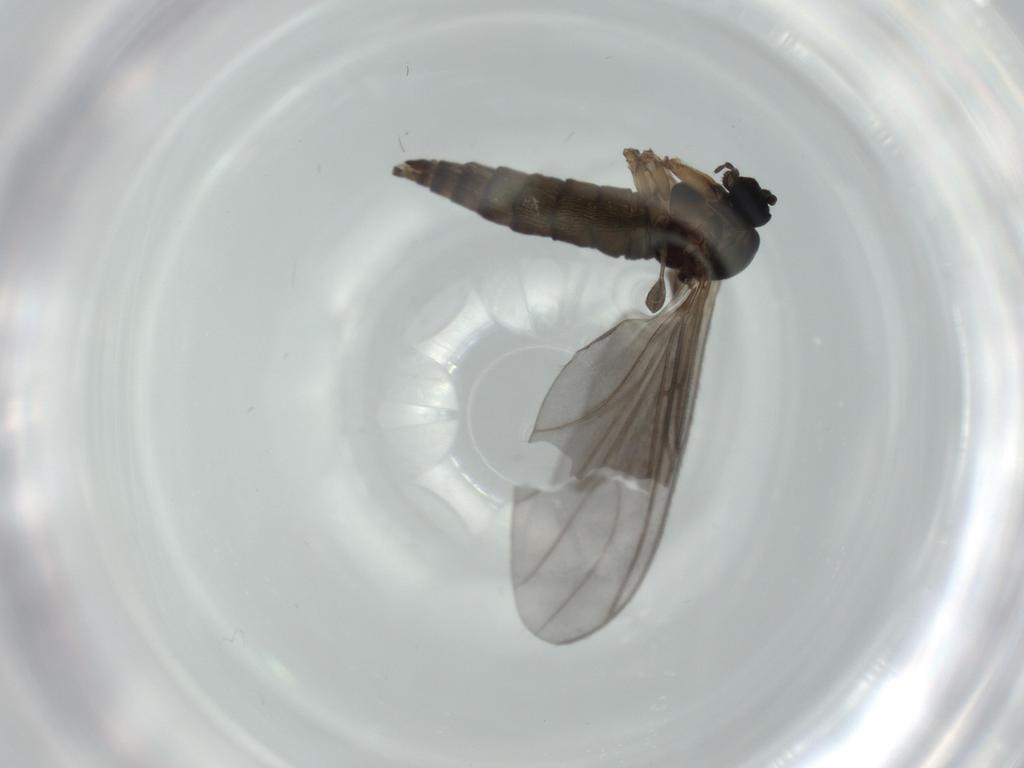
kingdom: Animalia
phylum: Arthropoda
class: Insecta
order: Diptera
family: Sciaridae
